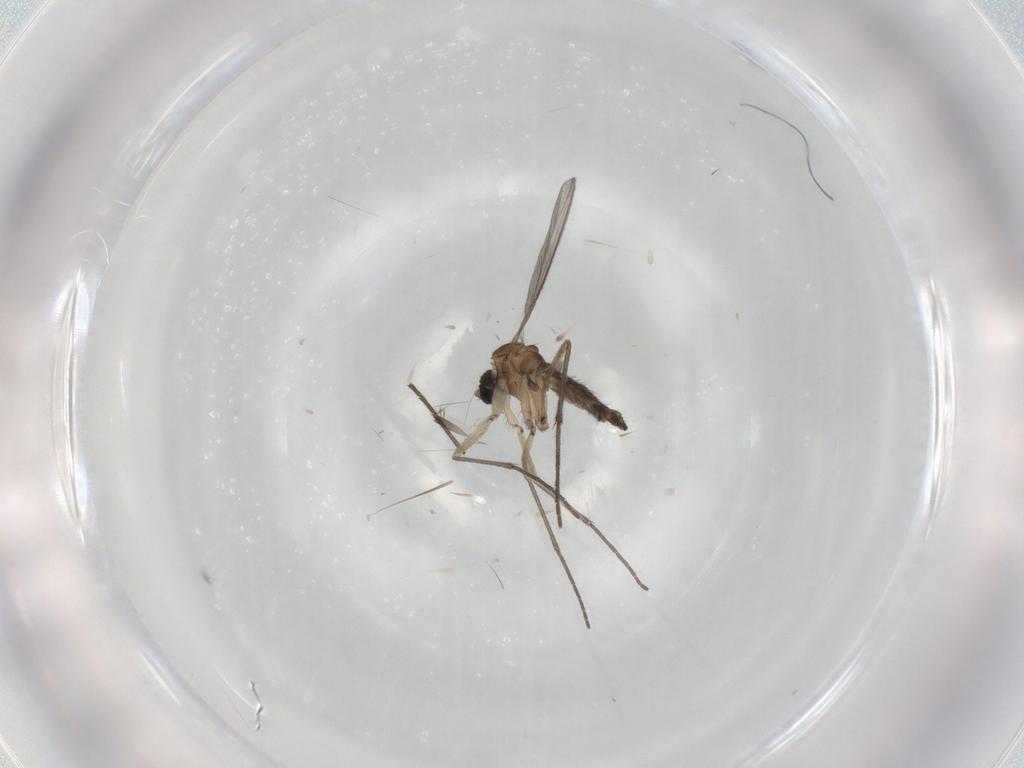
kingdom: Animalia
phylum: Arthropoda
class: Insecta
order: Diptera
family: Sciaridae
